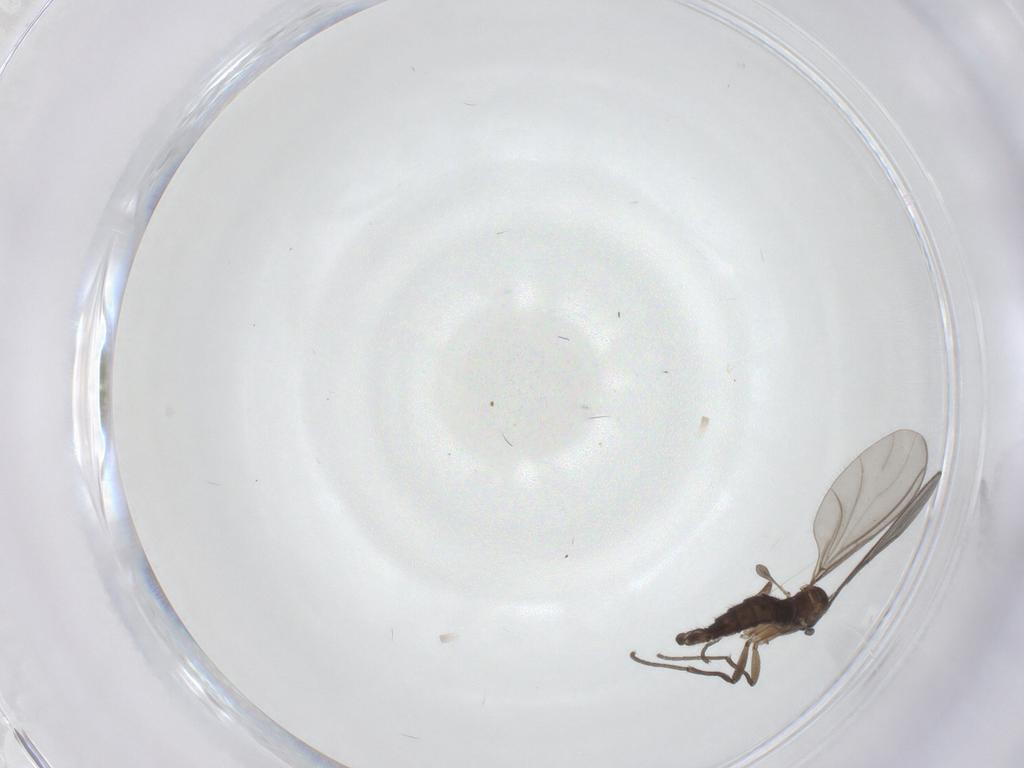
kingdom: Animalia
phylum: Arthropoda
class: Insecta
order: Diptera
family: Sciaridae
